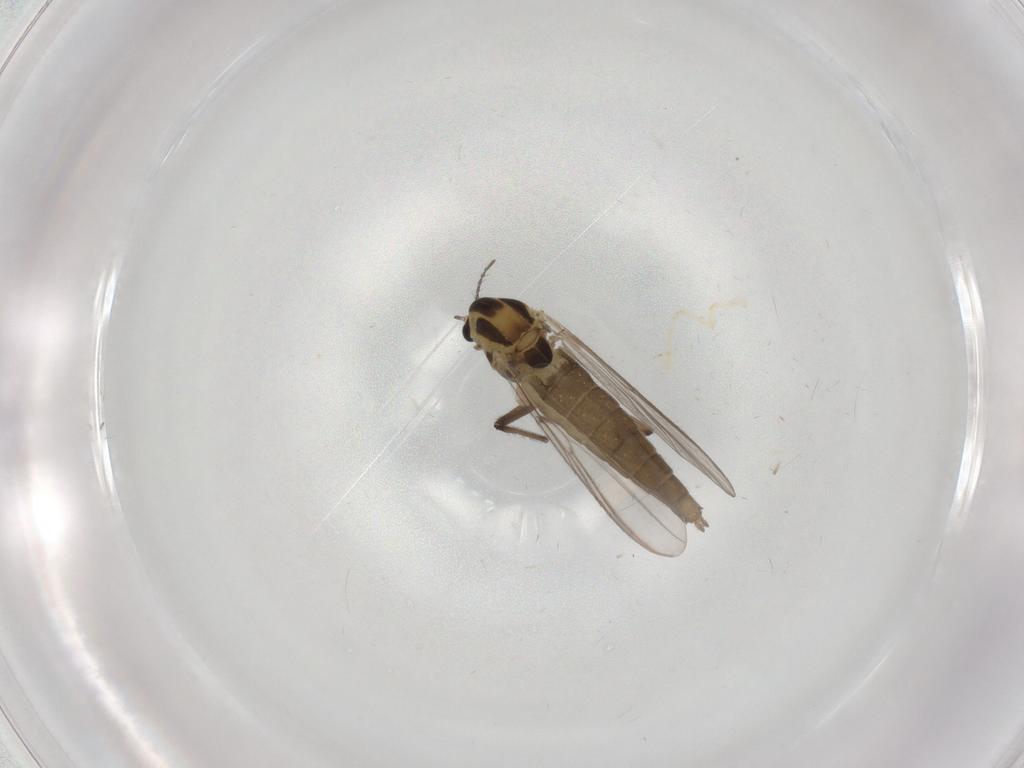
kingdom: Animalia
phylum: Arthropoda
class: Insecta
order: Diptera
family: Chironomidae
